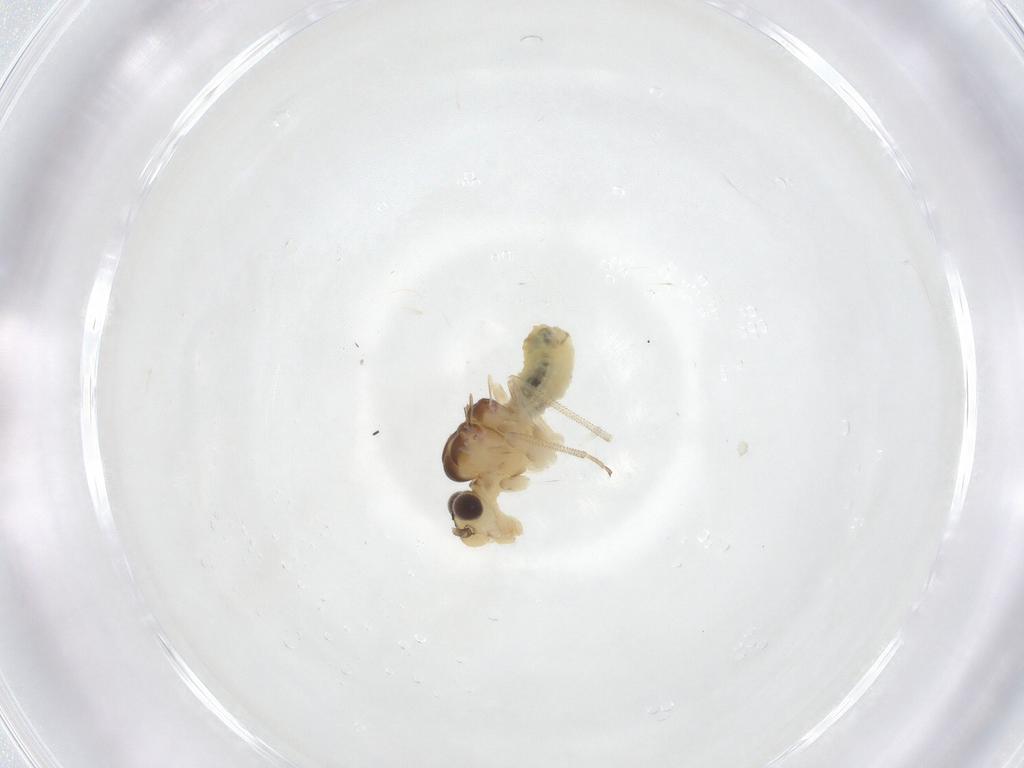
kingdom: Animalia
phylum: Arthropoda
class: Insecta
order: Psocodea
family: Caeciliusidae
